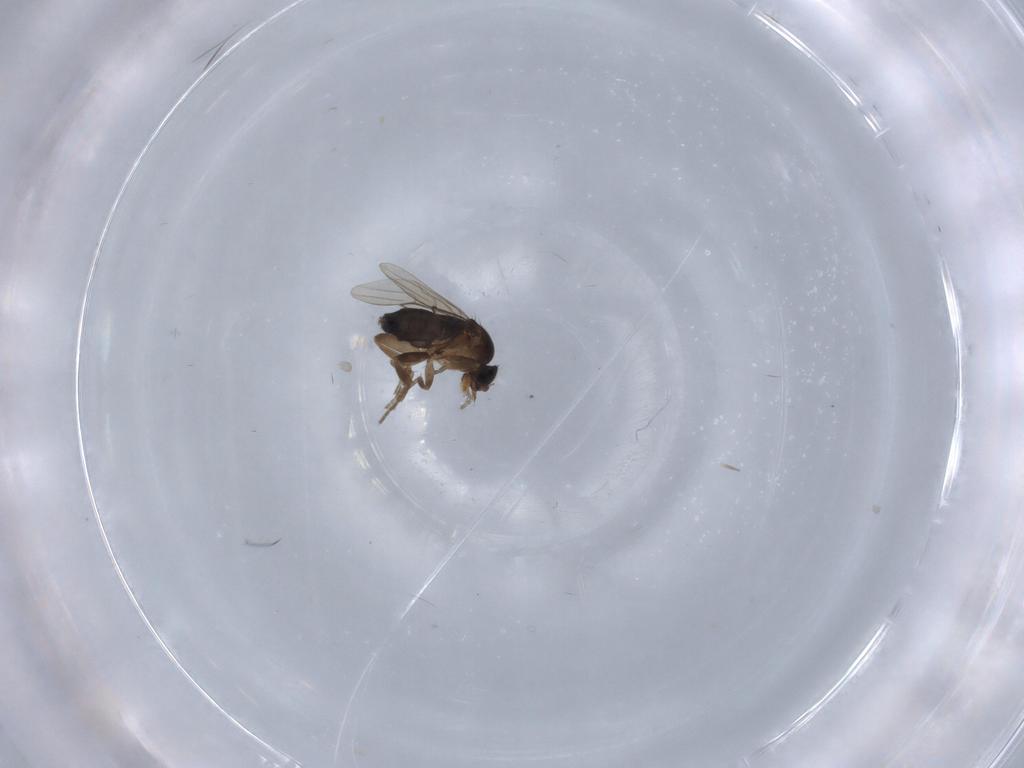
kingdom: Animalia
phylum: Arthropoda
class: Insecta
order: Diptera
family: Phoridae
